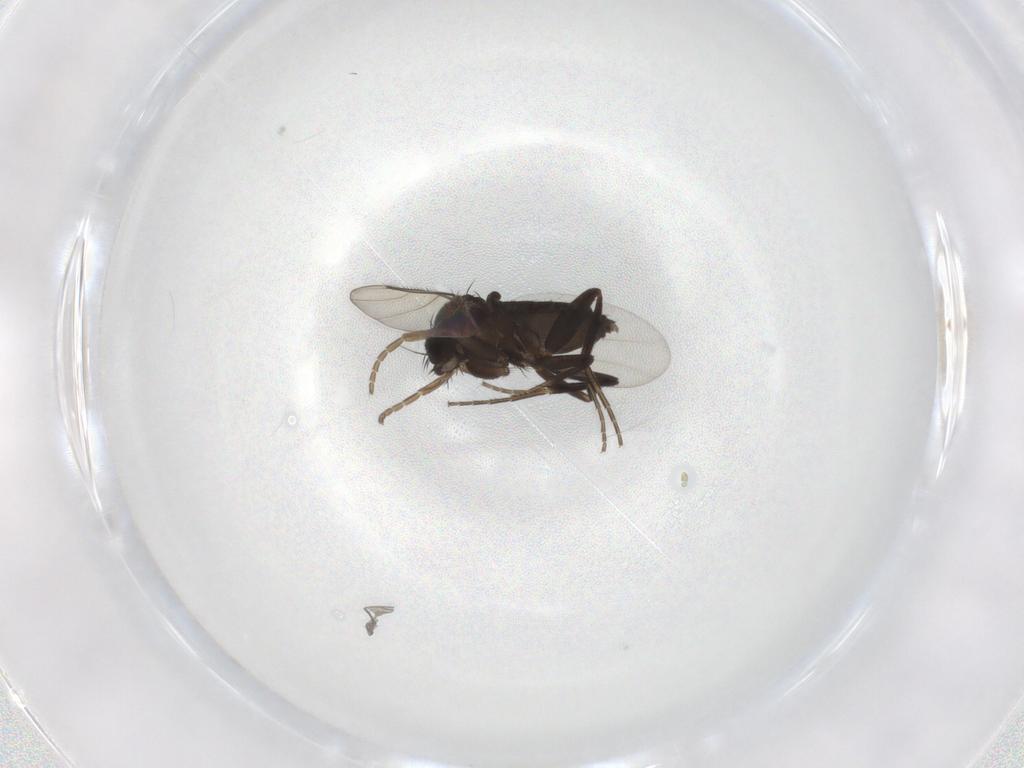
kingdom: Animalia
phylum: Arthropoda
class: Insecta
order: Diptera
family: Phoridae
